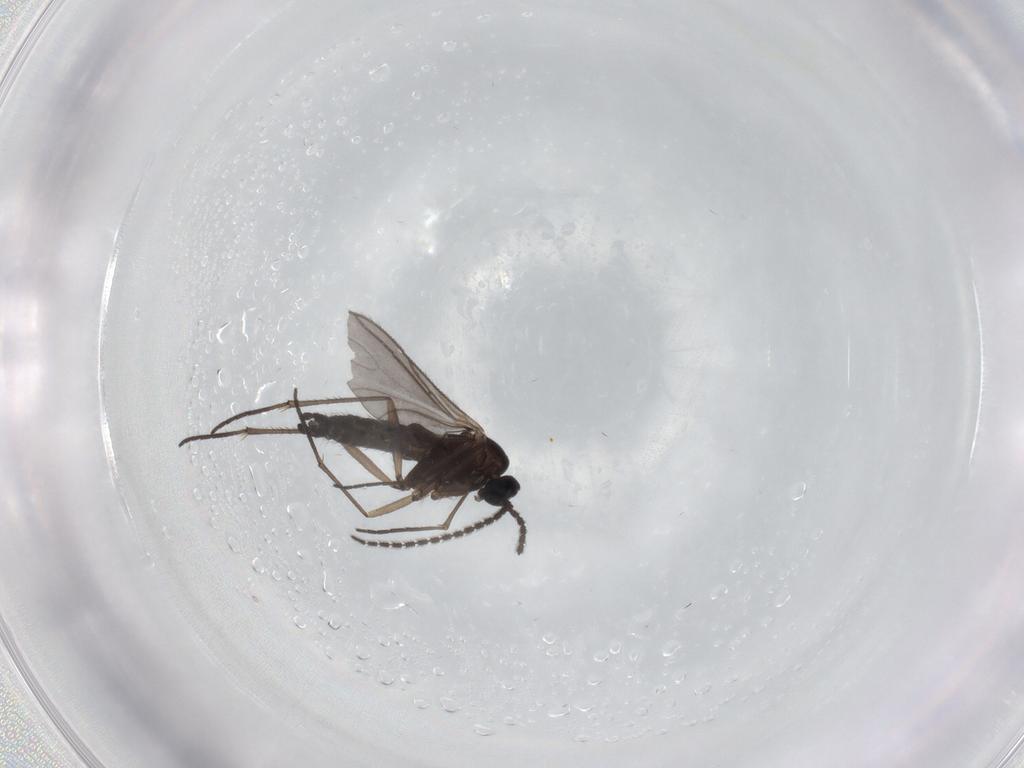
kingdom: Animalia
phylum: Arthropoda
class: Insecta
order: Diptera
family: Sciaridae
